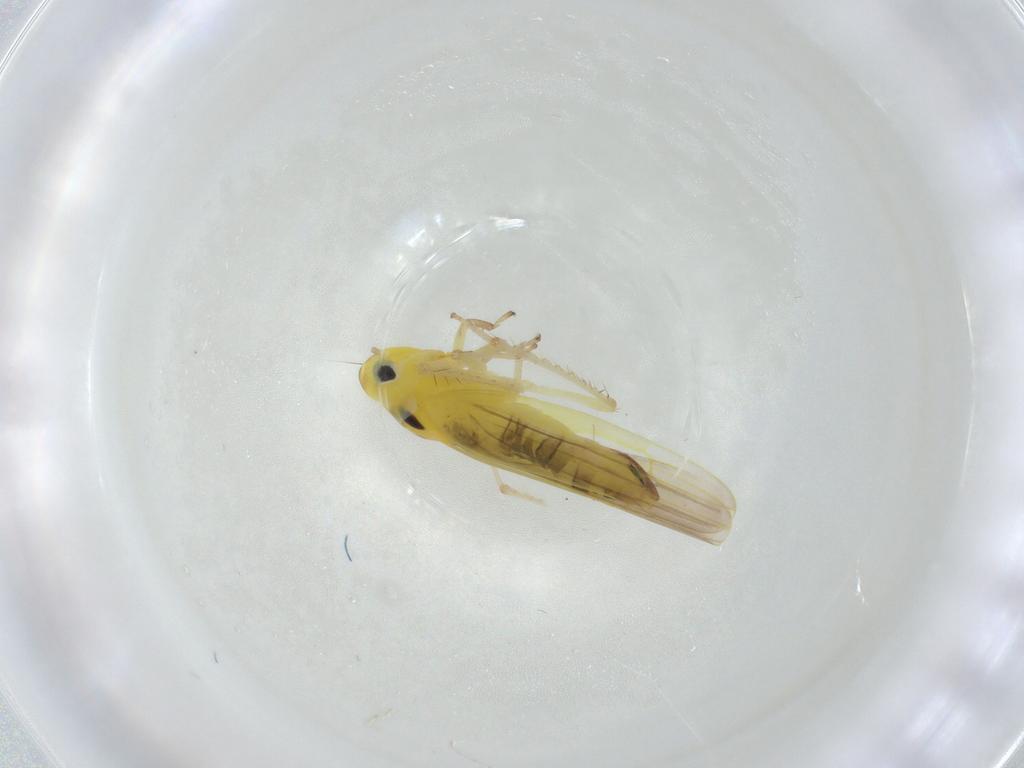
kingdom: Animalia
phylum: Arthropoda
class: Insecta
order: Hemiptera
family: Cicadellidae
